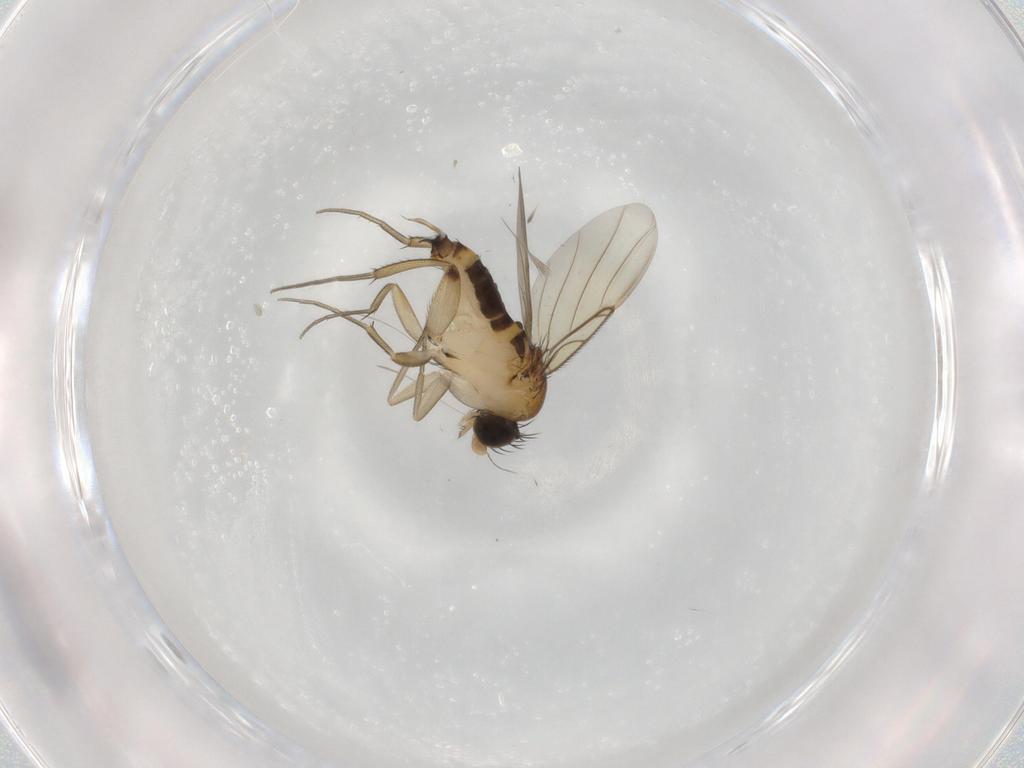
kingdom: Animalia
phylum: Arthropoda
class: Insecta
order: Diptera
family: Phoridae
